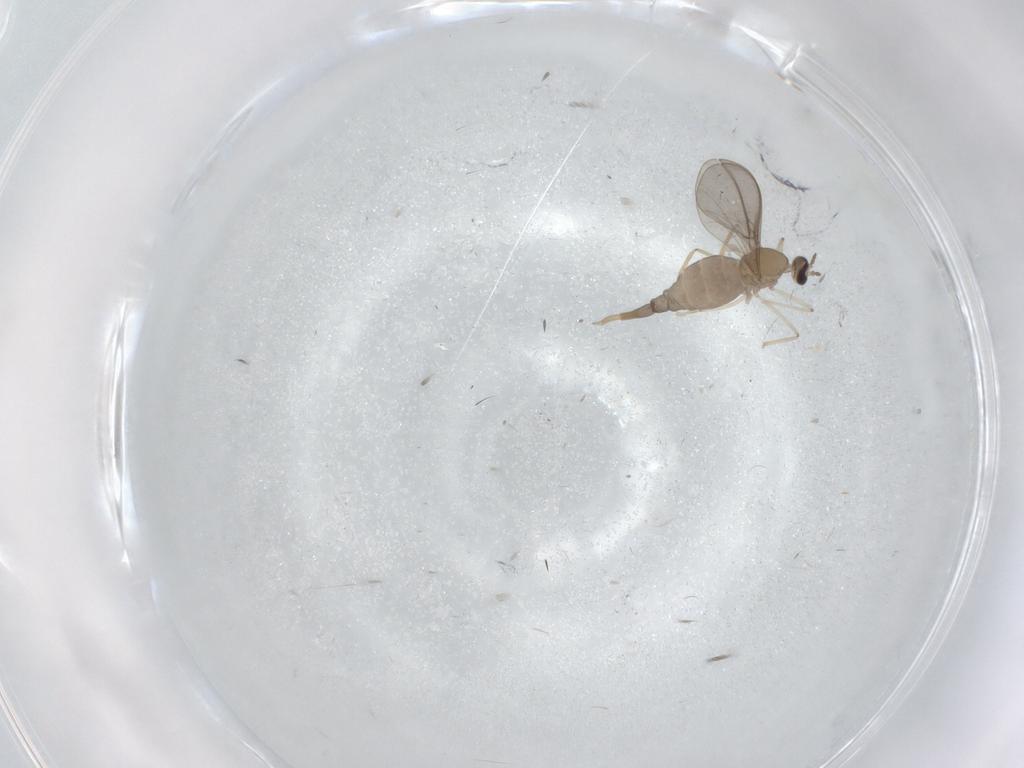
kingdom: Animalia
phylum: Arthropoda
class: Insecta
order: Diptera
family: Cecidomyiidae
